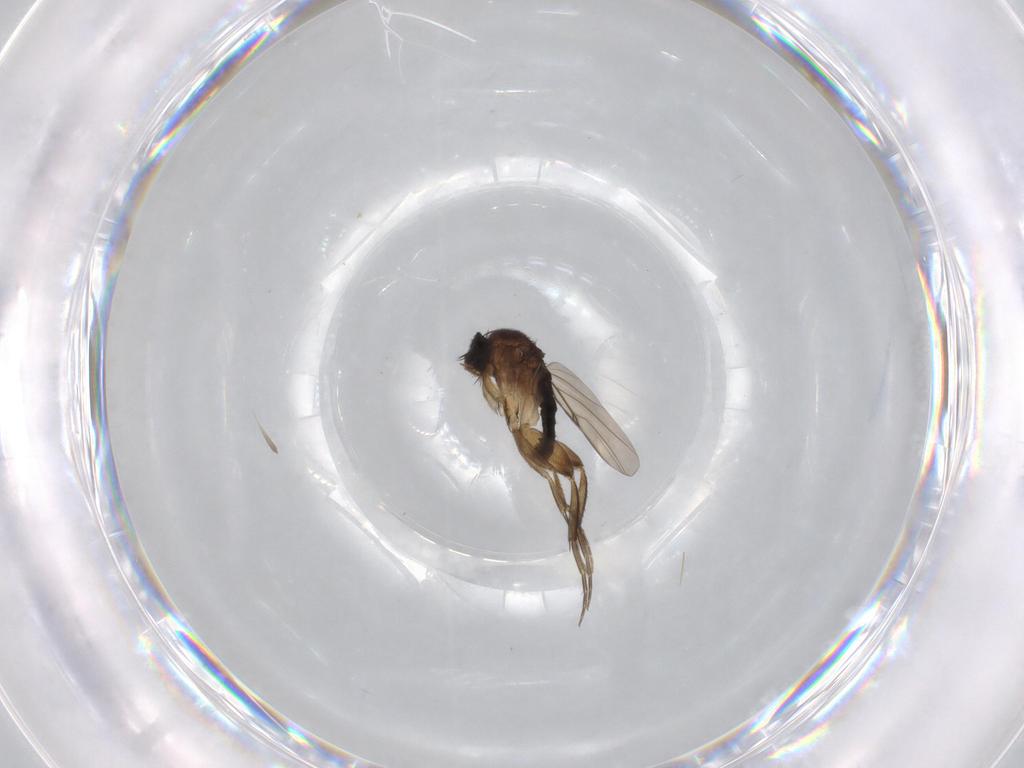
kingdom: Animalia
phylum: Arthropoda
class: Insecta
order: Diptera
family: Phoridae
